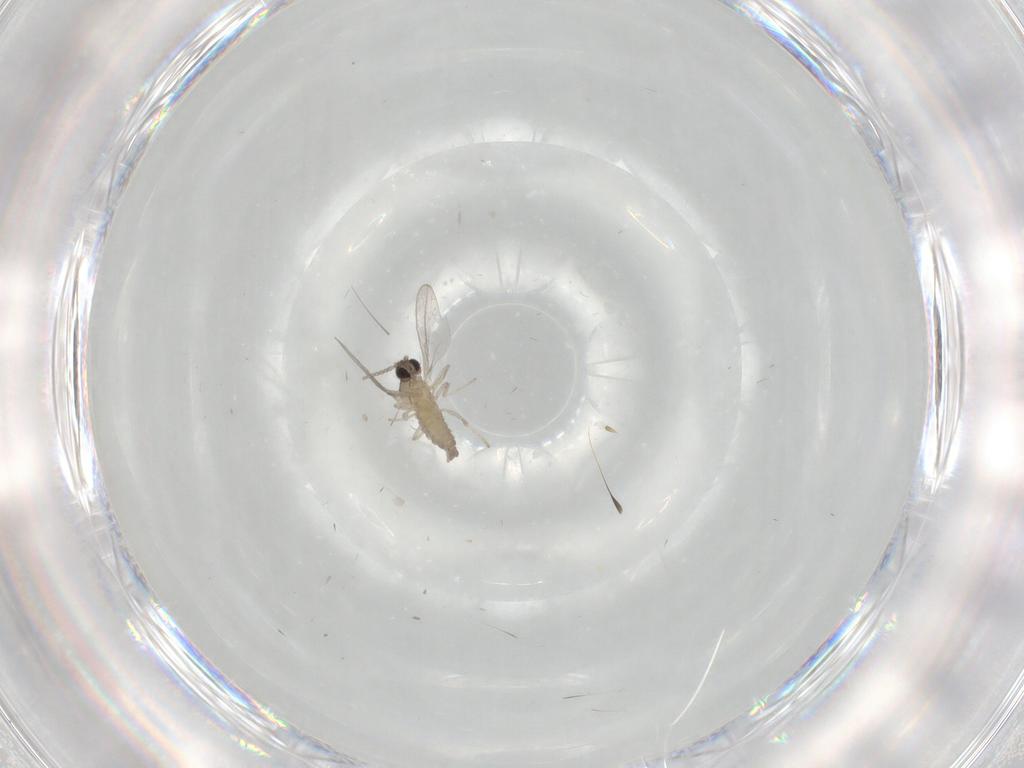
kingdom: Animalia
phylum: Arthropoda
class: Insecta
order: Diptera
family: Cecidomyiidae
